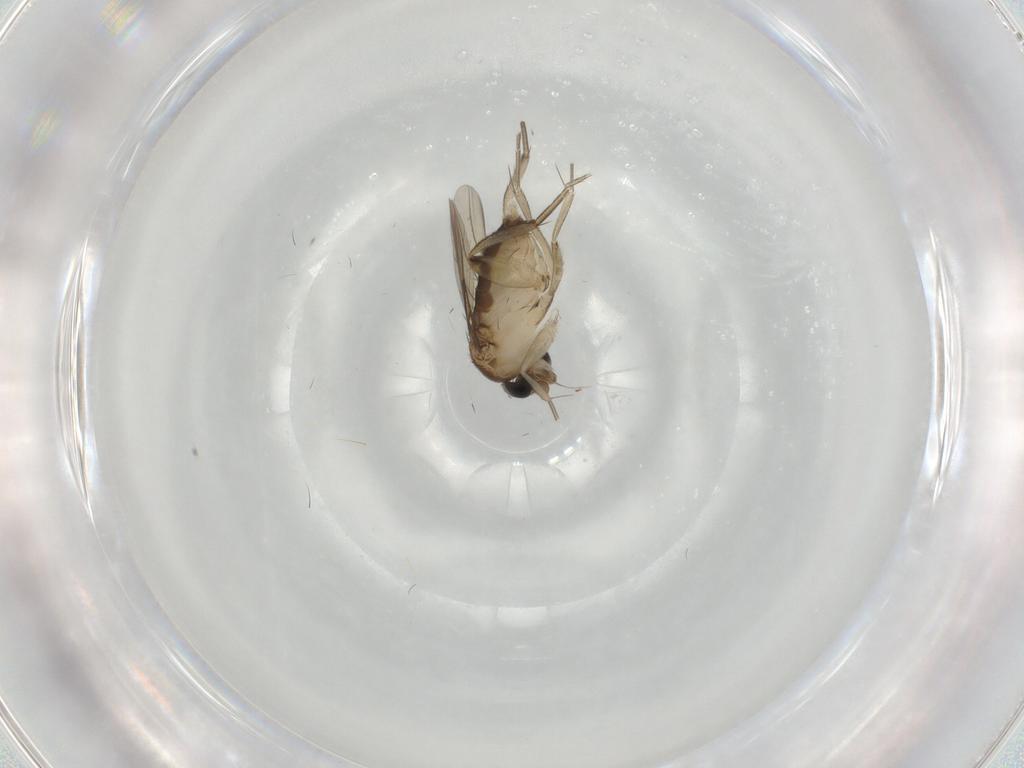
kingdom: Animalia
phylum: Arthropoda
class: Insecta
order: Diptera
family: Phoridae
